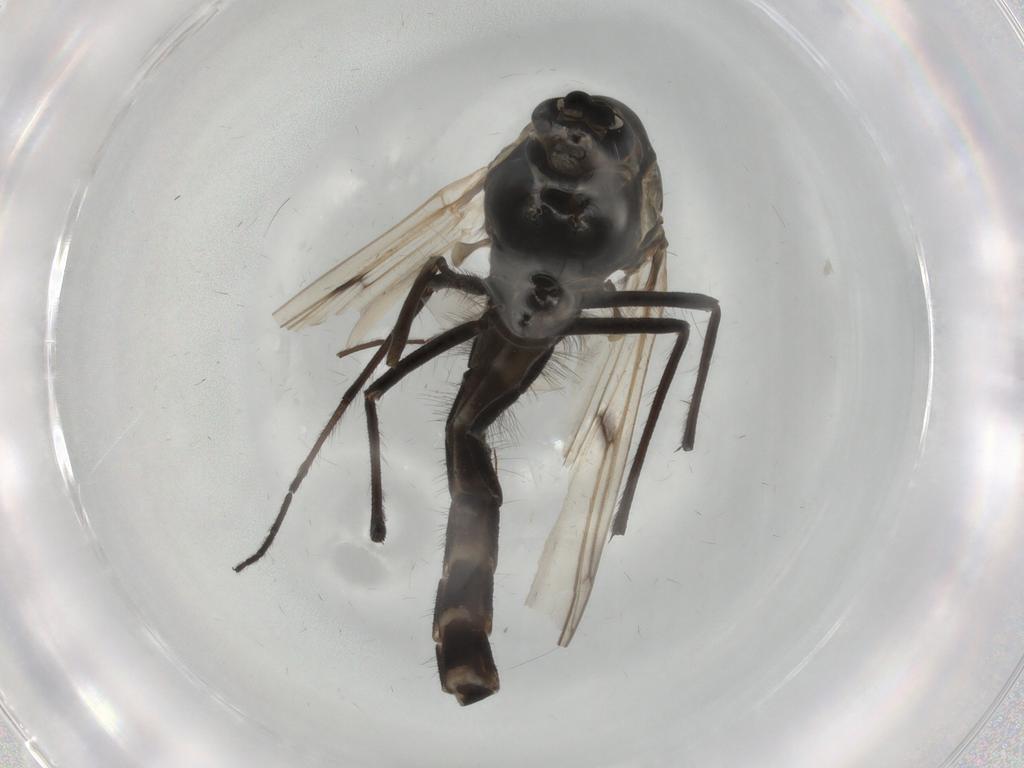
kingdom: Animalia
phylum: Arthropoda
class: Insecta
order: Diptera
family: Chironomidae
